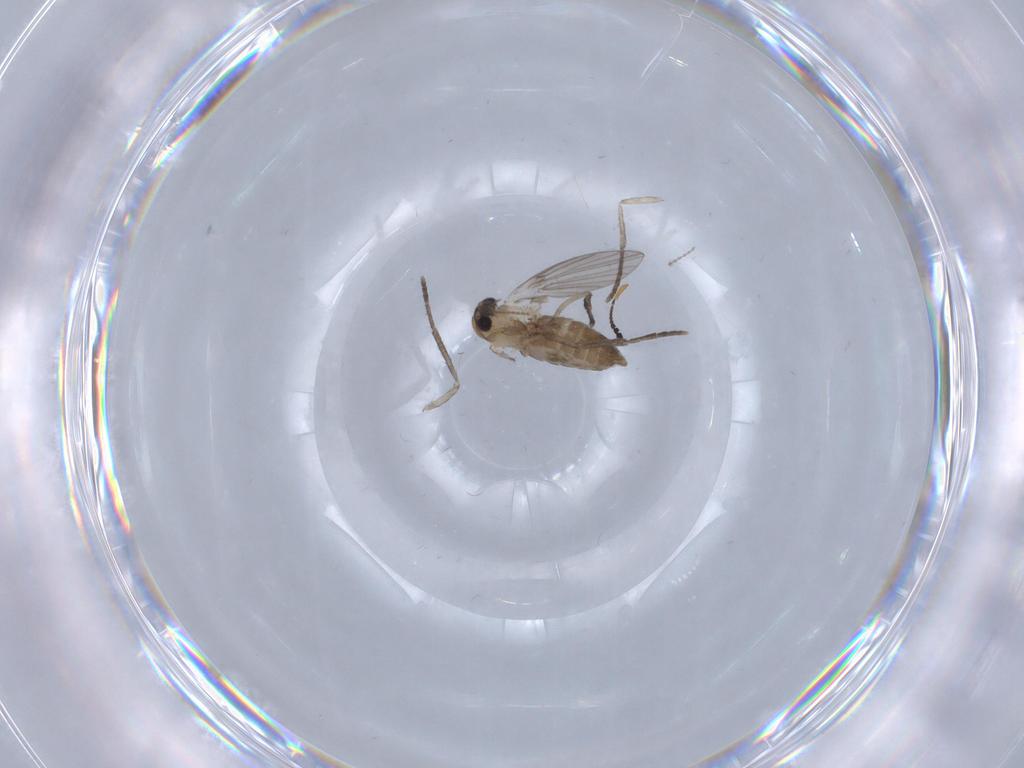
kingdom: Animalia
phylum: Arthropoda
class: Insecta
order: Diptera
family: Psychodidae
